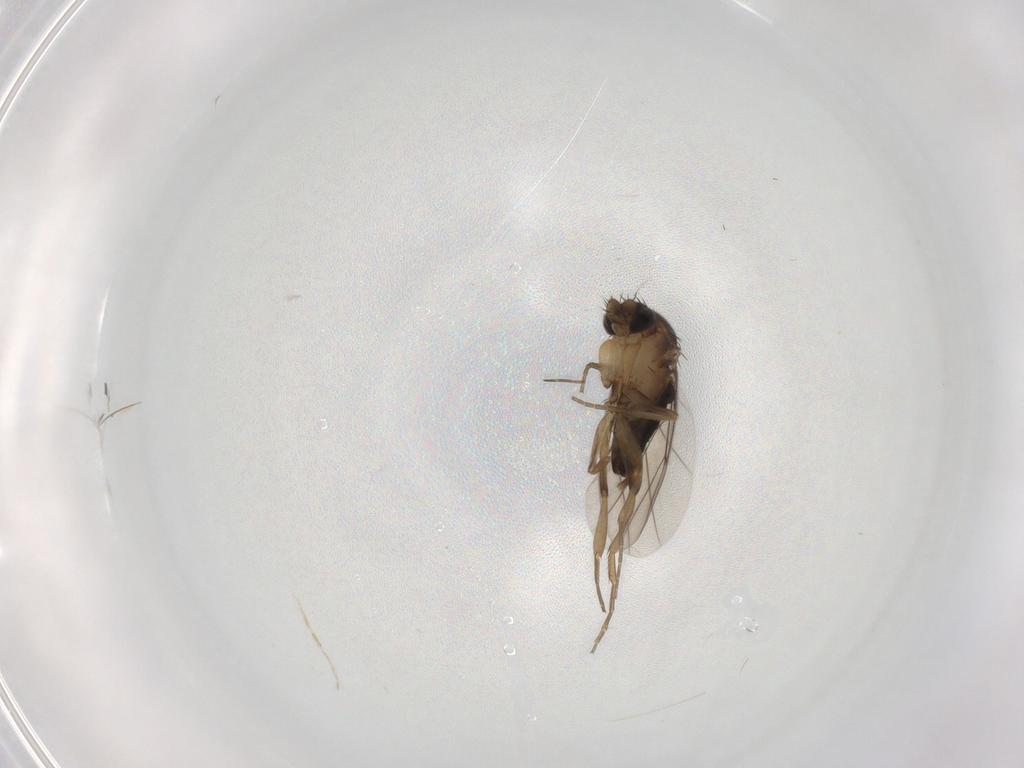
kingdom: Animalia
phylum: Arthropoda
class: Insecta
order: Diptera
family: Phoridae
